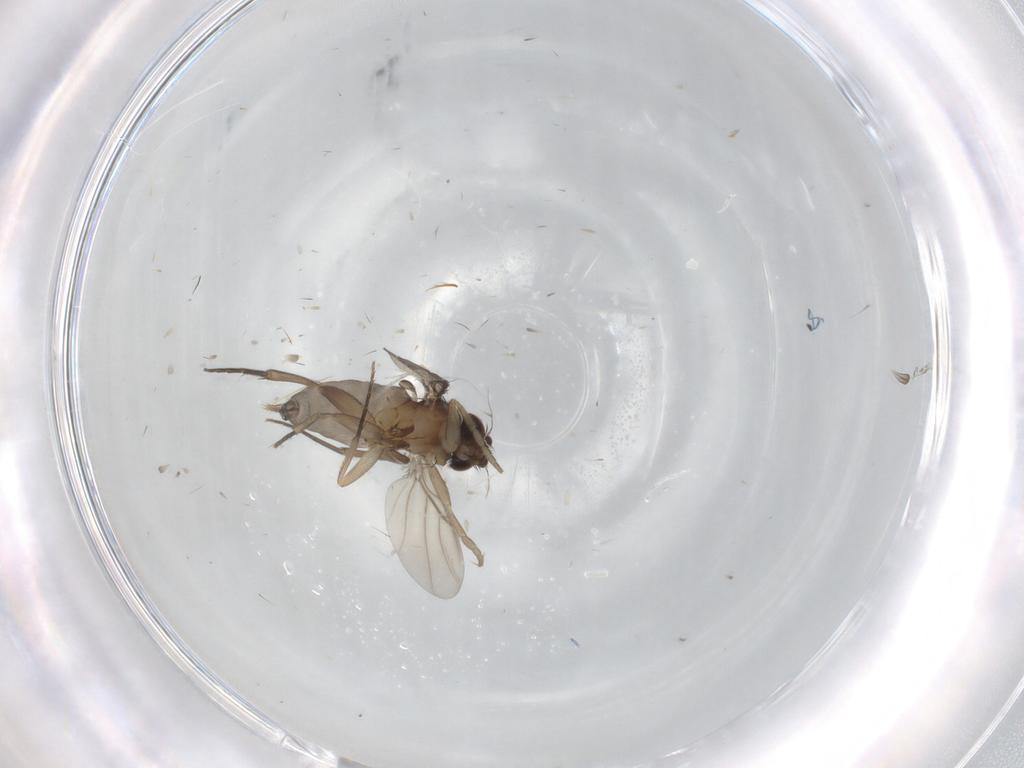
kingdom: Animalia
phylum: Arthropoda
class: Insecta
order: Diptera
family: Phoridae
